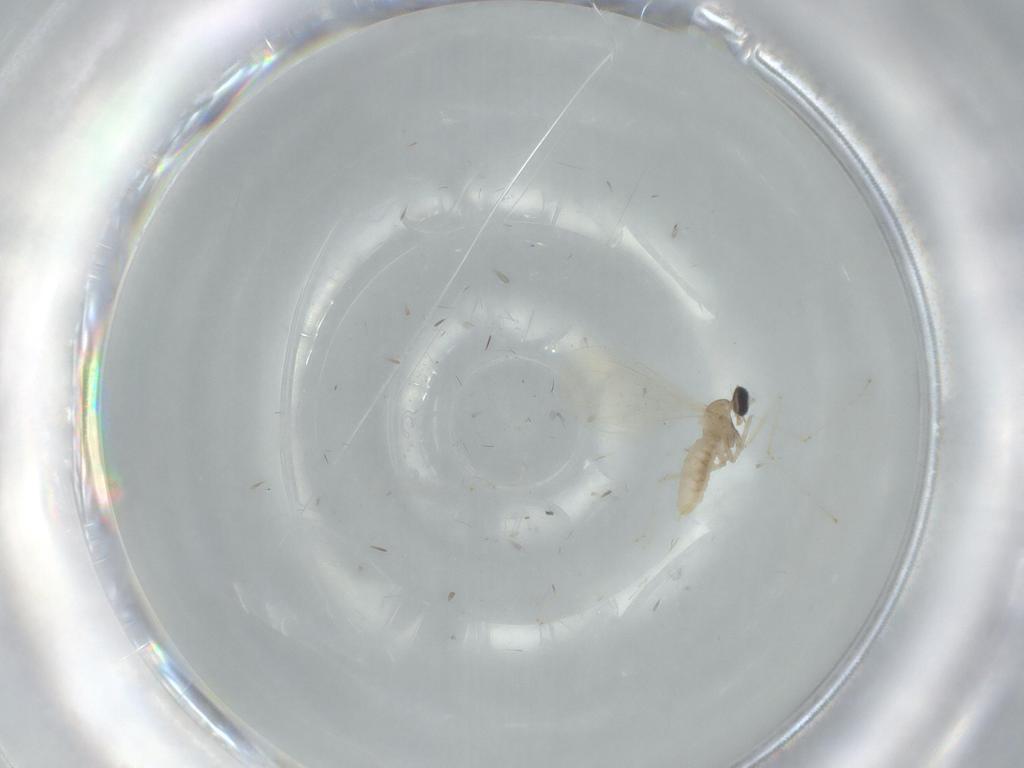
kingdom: Animalia
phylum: Arthropoda
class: Insecta
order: Diptera
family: Cecidomyiidae
